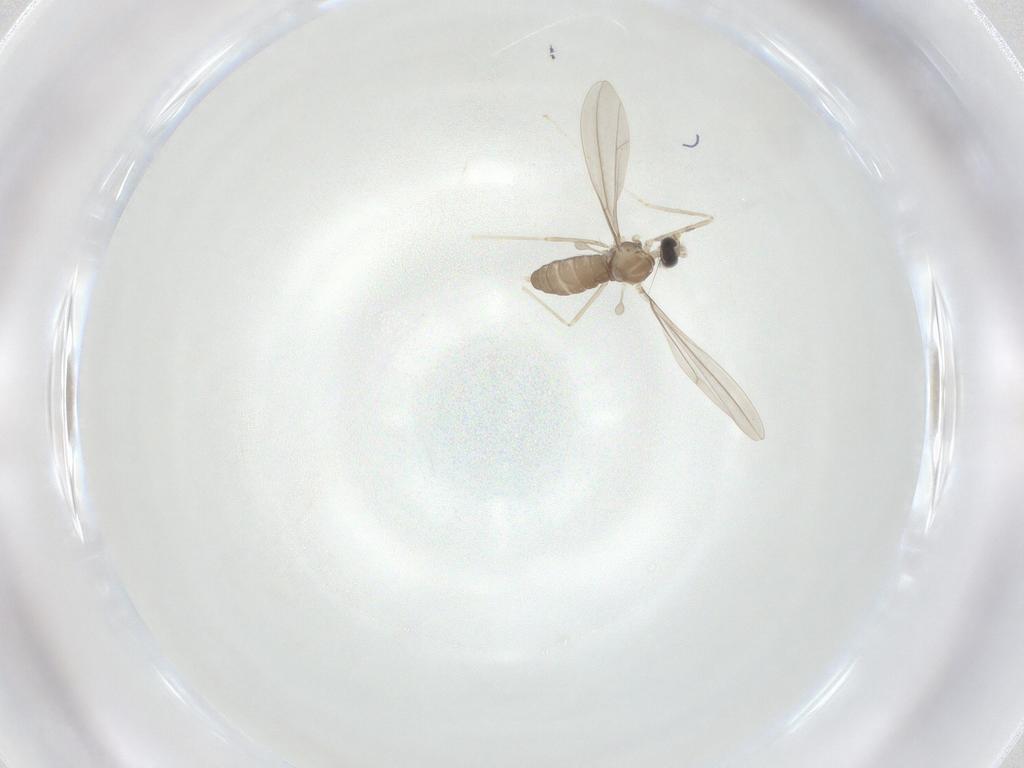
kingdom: Animalia
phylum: Arthropoda
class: Insecta
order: Diptera
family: Cecidomyiidae
